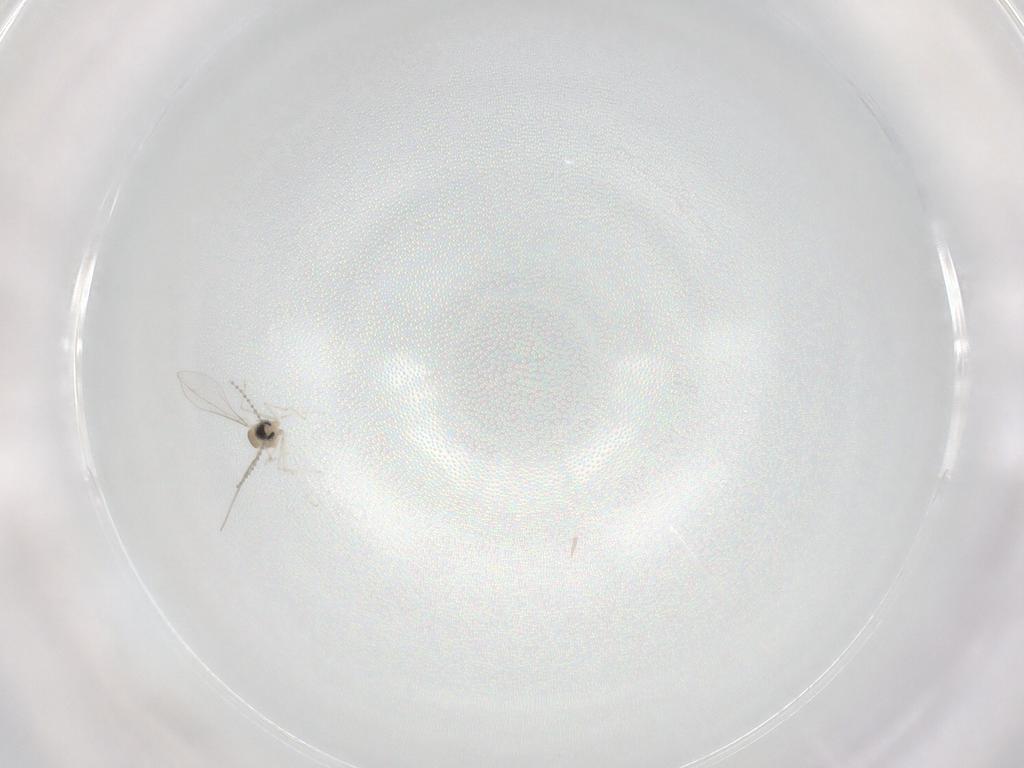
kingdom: Animalia
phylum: Arthropoda
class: Insecta
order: Diptera
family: Cecidomyiidae
